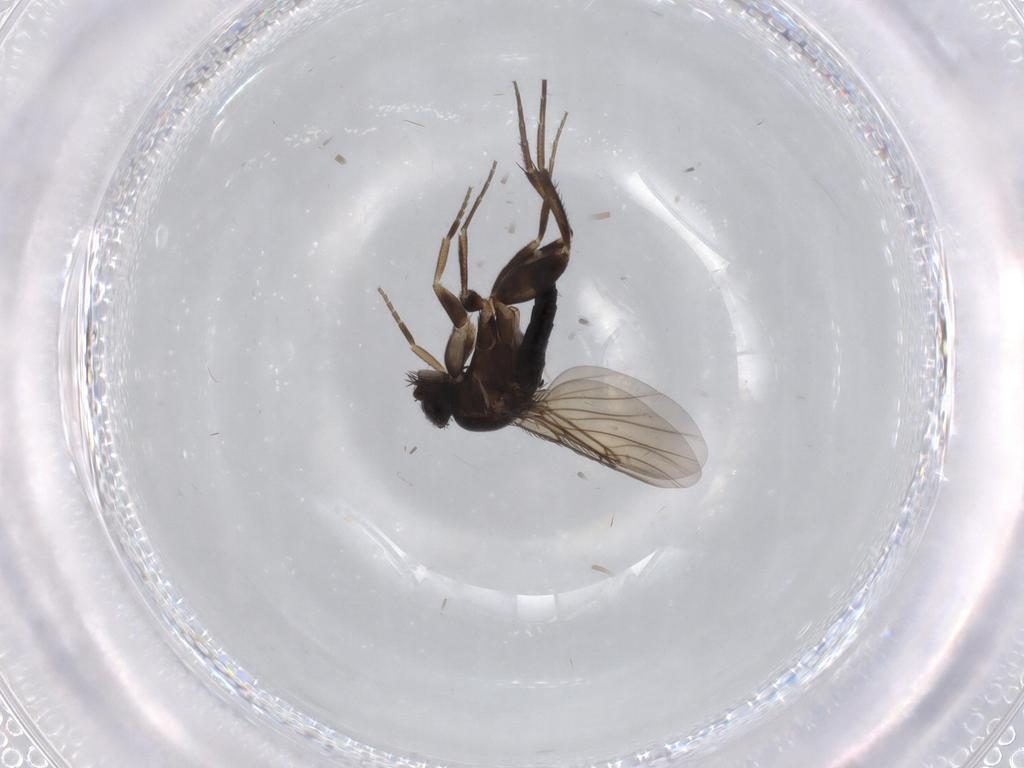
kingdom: Animalia
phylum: Arthropoda
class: Insecta
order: Diptera
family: Phoridae
